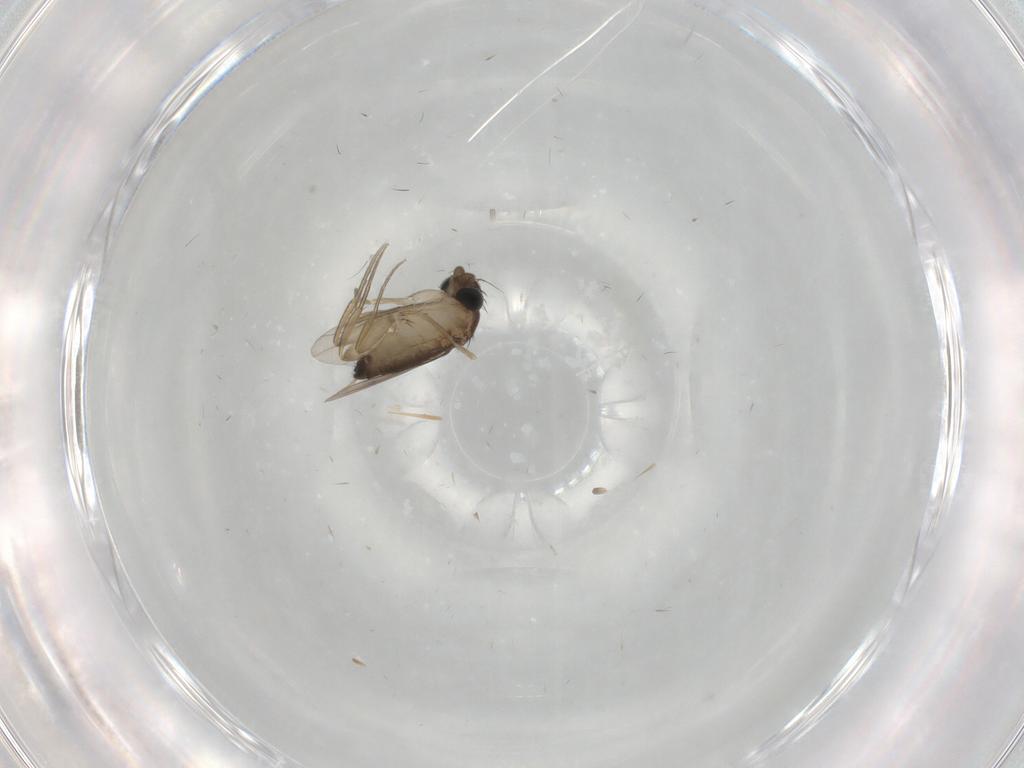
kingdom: Animalia
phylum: Arthropoda
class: Insecta
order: Diptera
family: Phoridae
